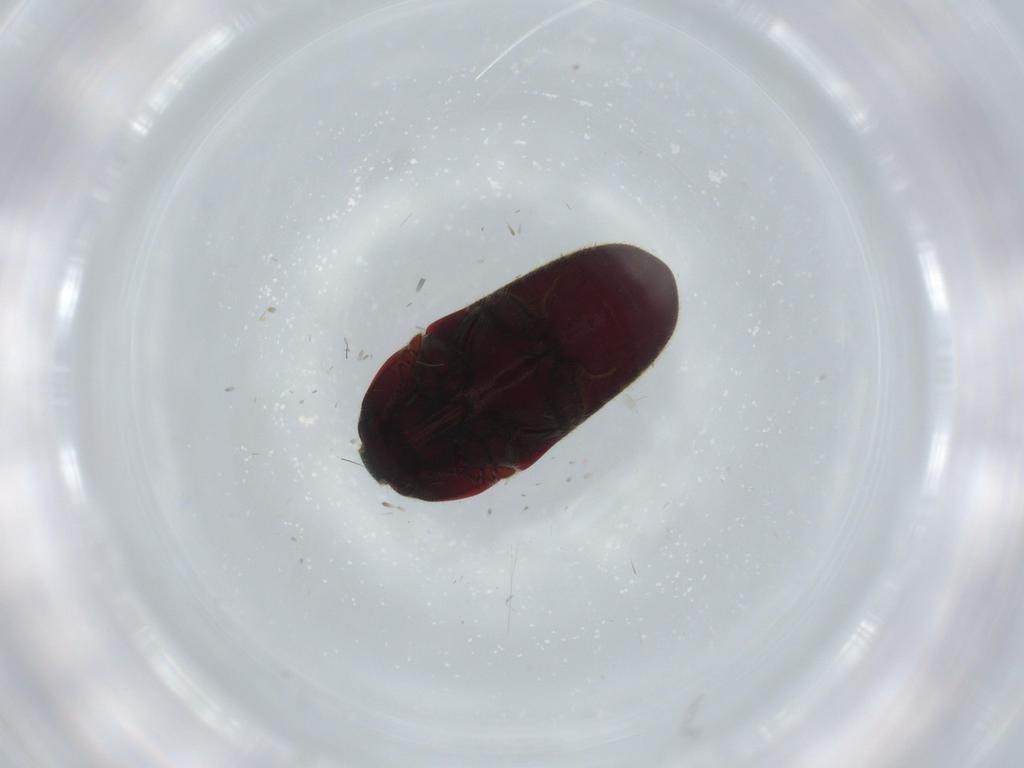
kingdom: Animalia
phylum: Arthropoda
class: Insecta
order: Coleoptera
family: Throscidae
